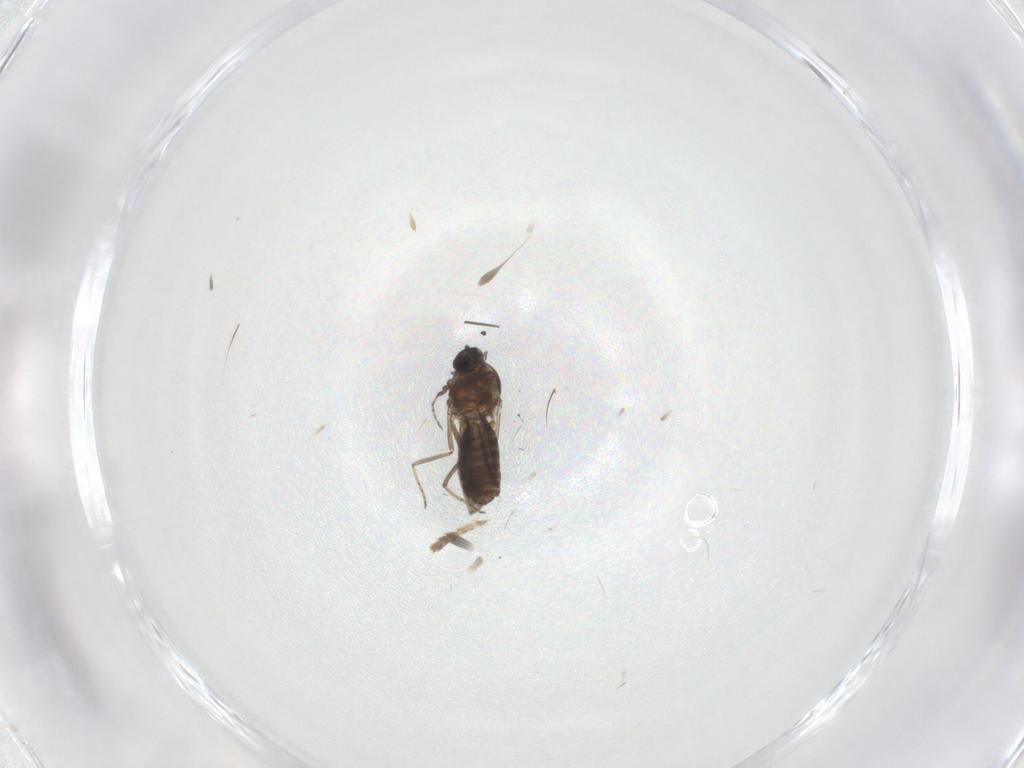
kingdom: Animalia
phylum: Arthropoda
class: Insecta
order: Diptera
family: Ceratopogonidae
